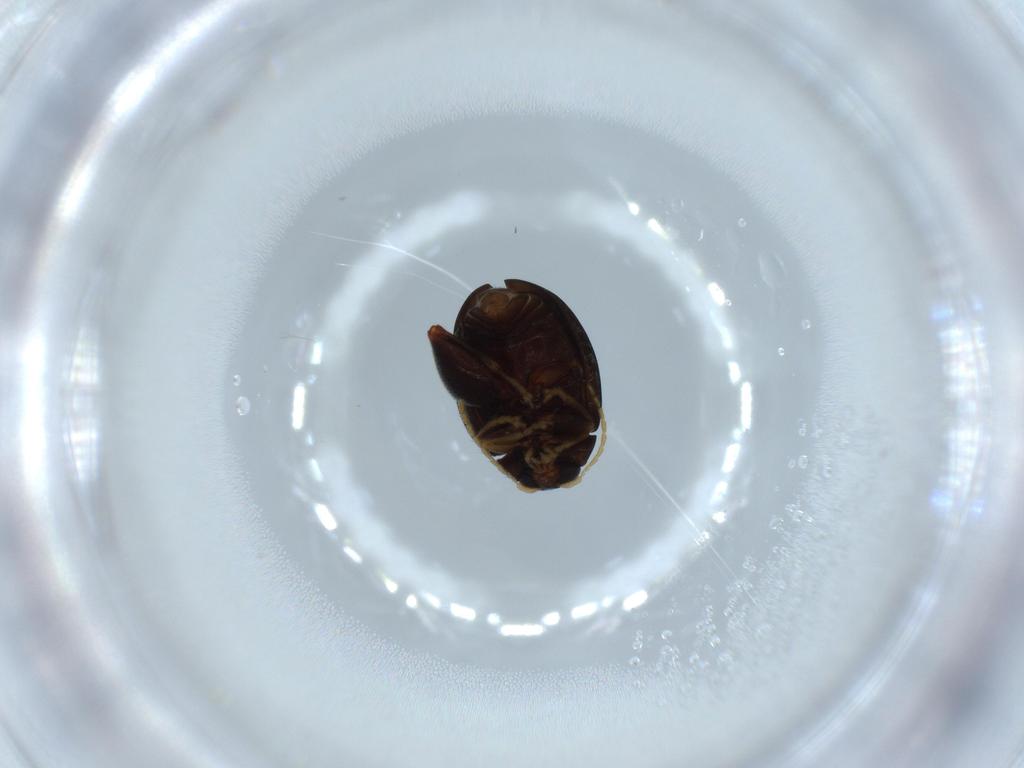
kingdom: Animalia
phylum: Arthropoda
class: Insecta
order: Coleoptera
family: Chrysomelidae
